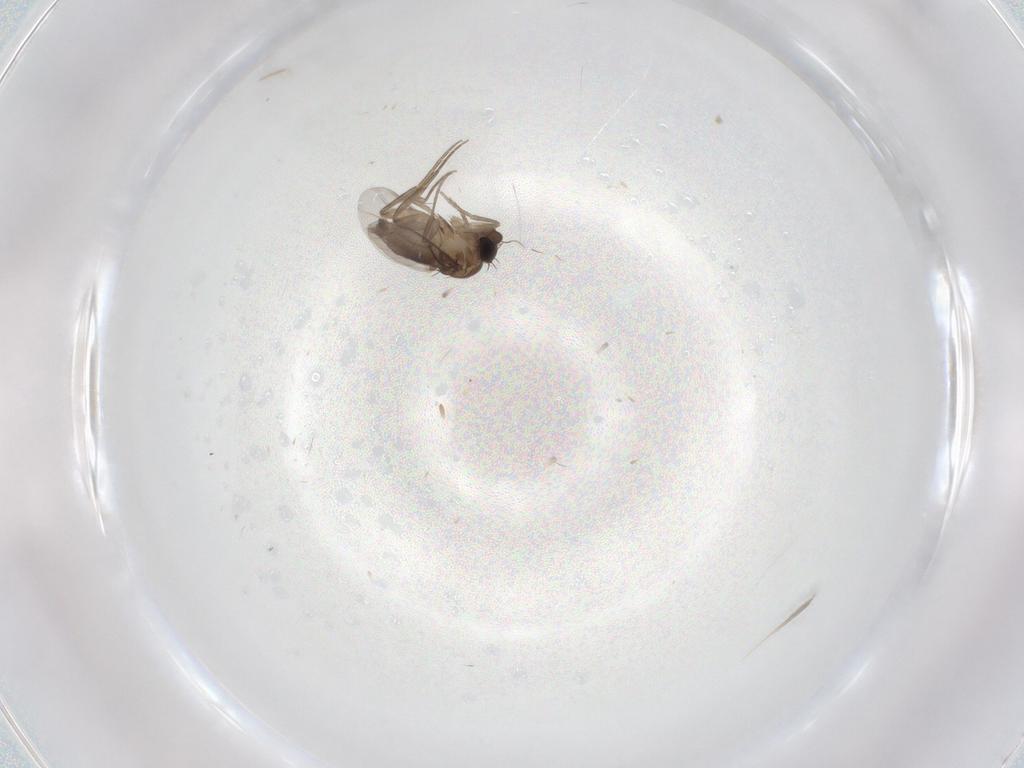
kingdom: Animalia
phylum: Arthropoda
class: Insecta
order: Diptera
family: Phoridae
